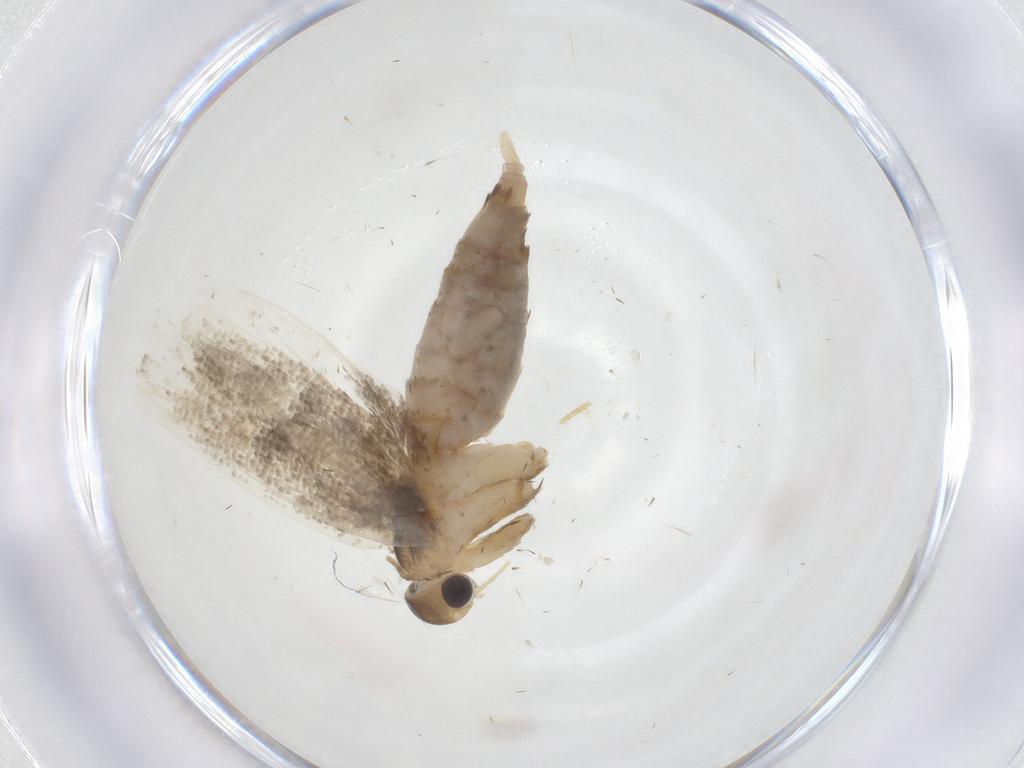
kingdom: Animalia
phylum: Arthropoda
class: Insecta
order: Lepidoptera
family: Lecithoceridae
